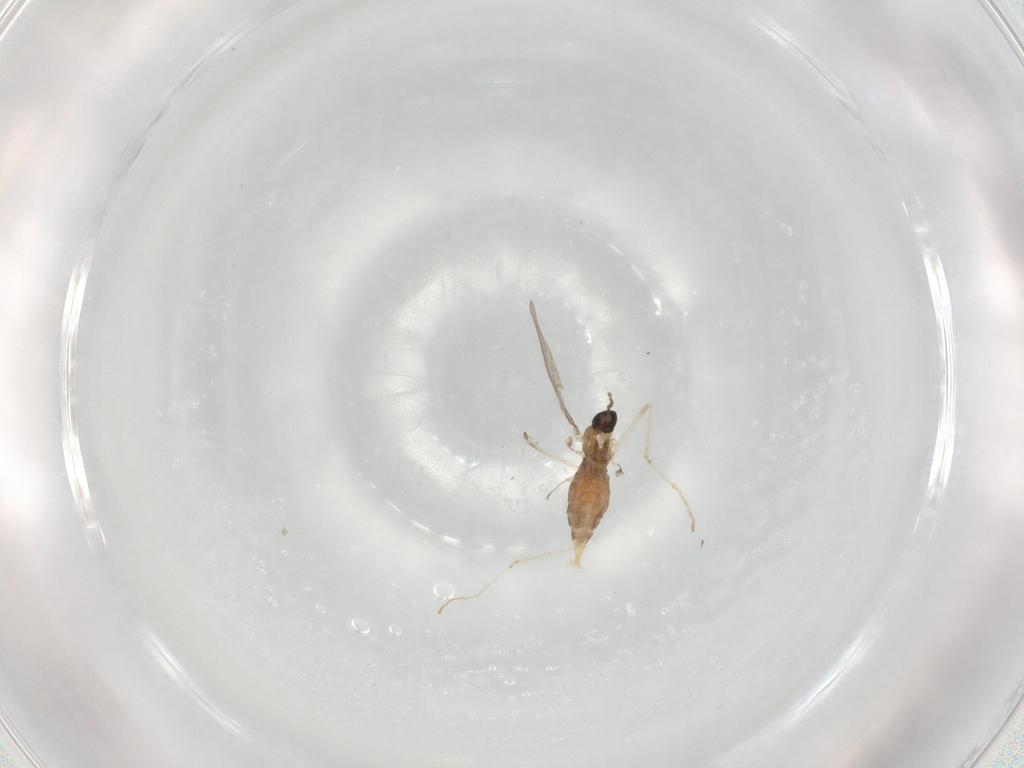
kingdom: Animalia
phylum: Arthropoda
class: Insecta
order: Diptera
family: Cecidomyiidae
